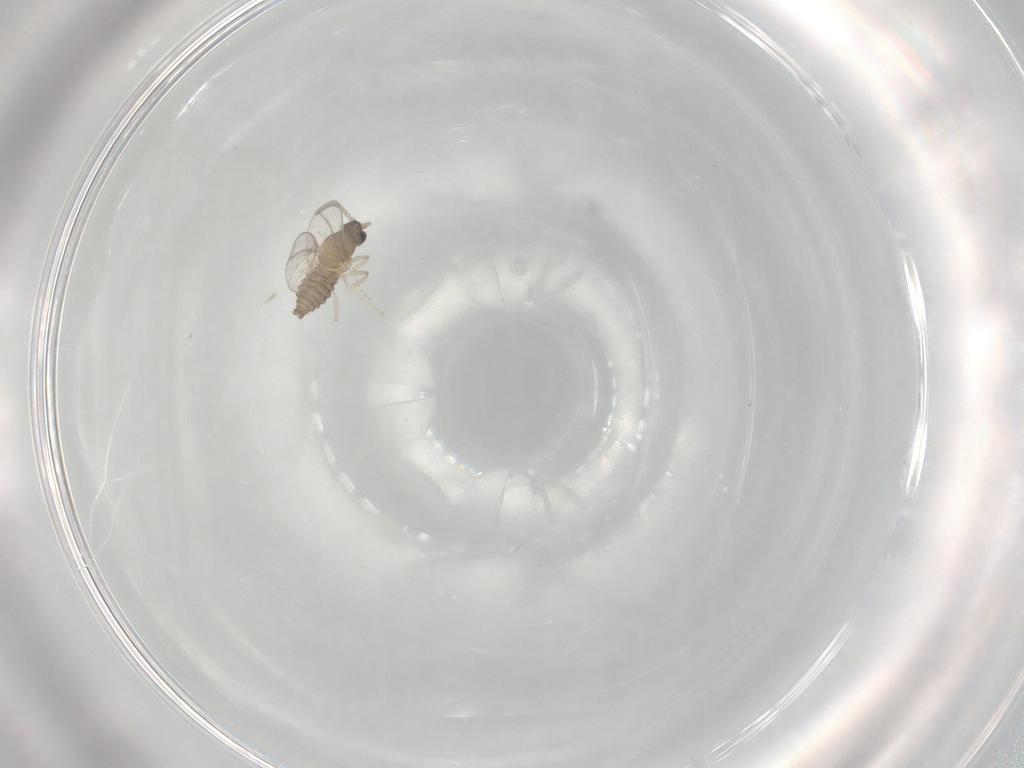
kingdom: Animalia
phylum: Arthropoda
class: Insecta
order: Diptera
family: Cecidomyiidae
